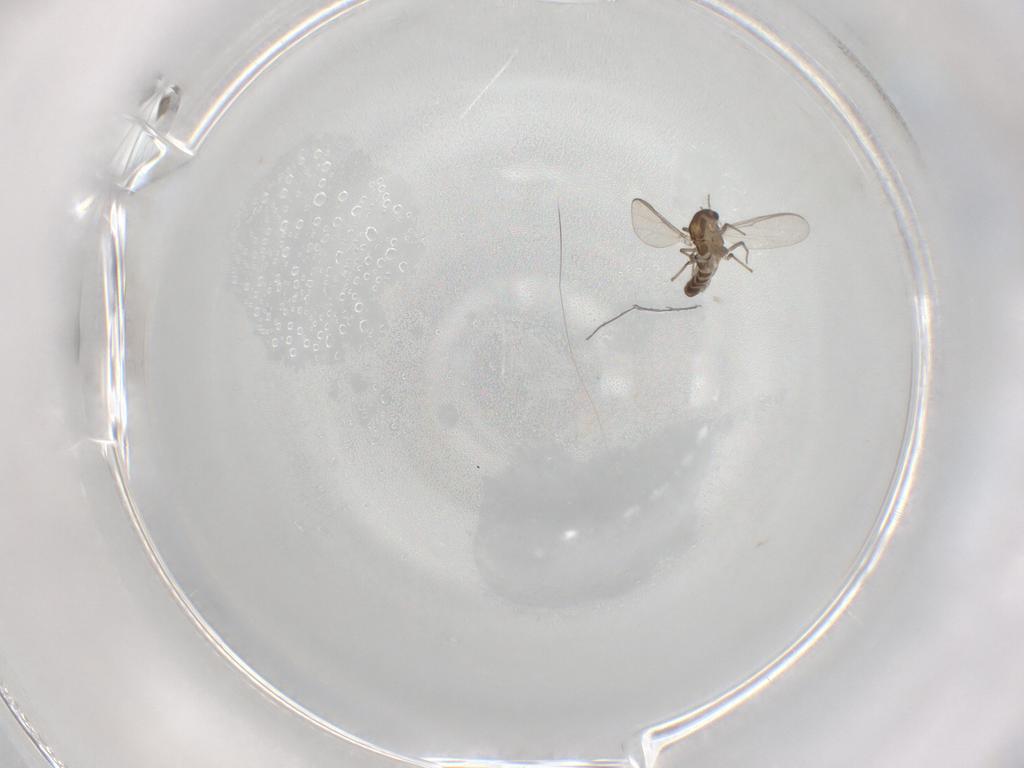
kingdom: Animalia
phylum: Arthropoda
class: Insecta
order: Diptera
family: Chironomidae
